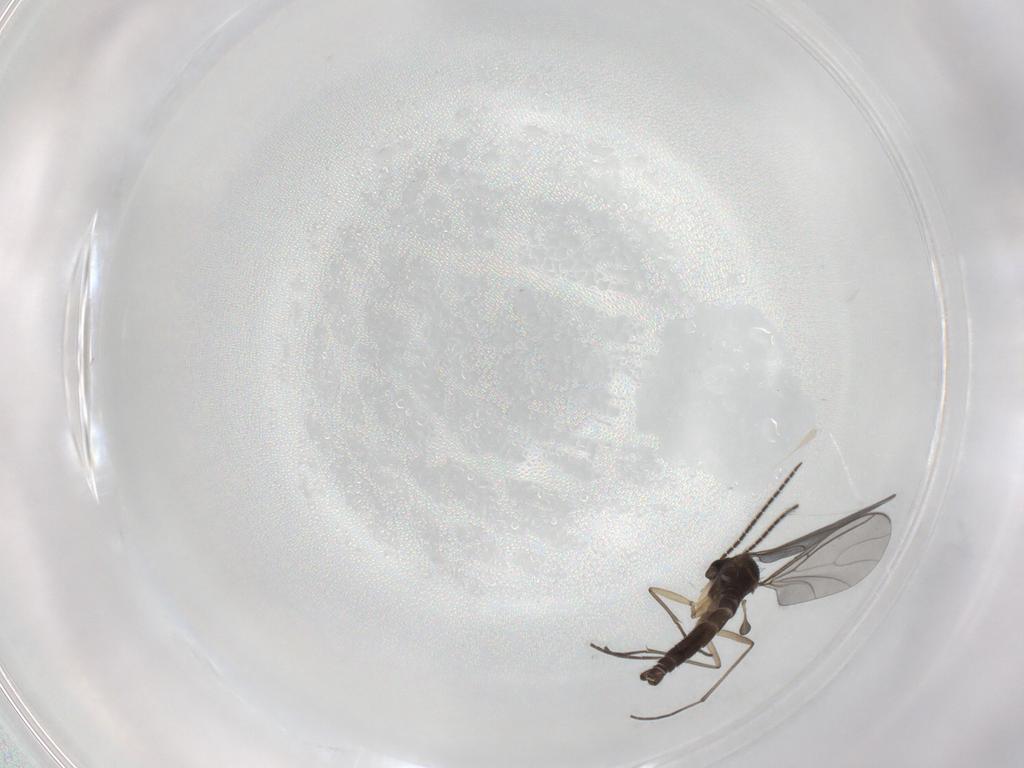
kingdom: Animalia
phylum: Arthropoda
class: Insecta
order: Diptera
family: Sciaridae
